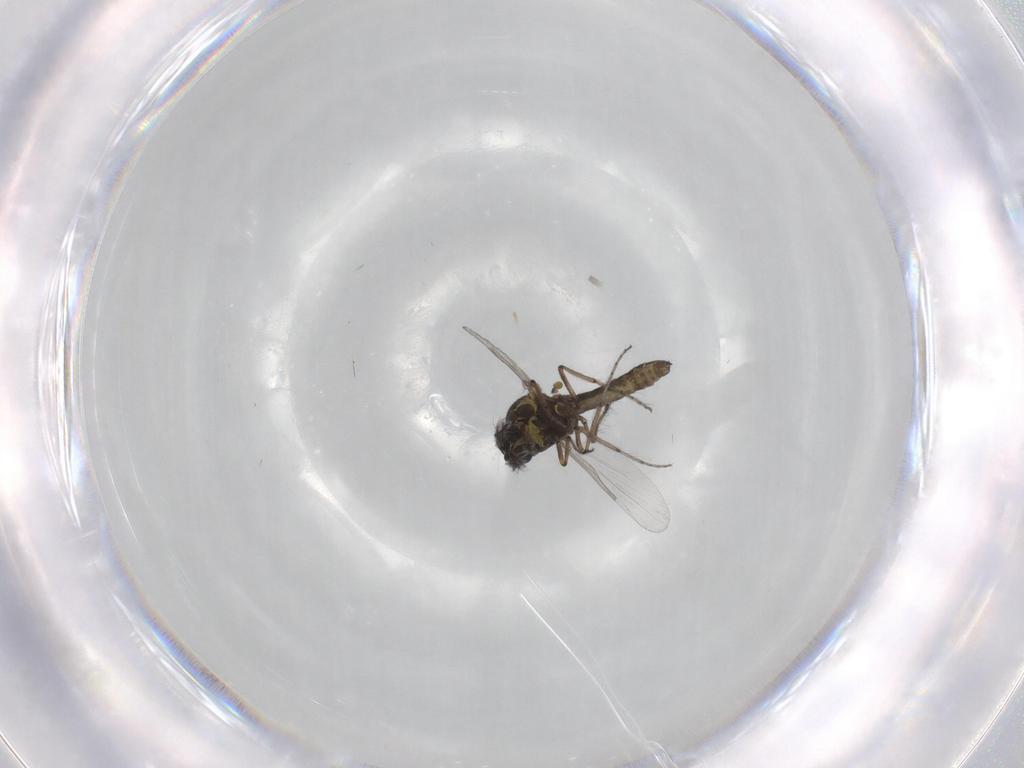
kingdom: Animalia
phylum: Arthropoda
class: Insecta
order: Diptera
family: Ceratopogonidae
